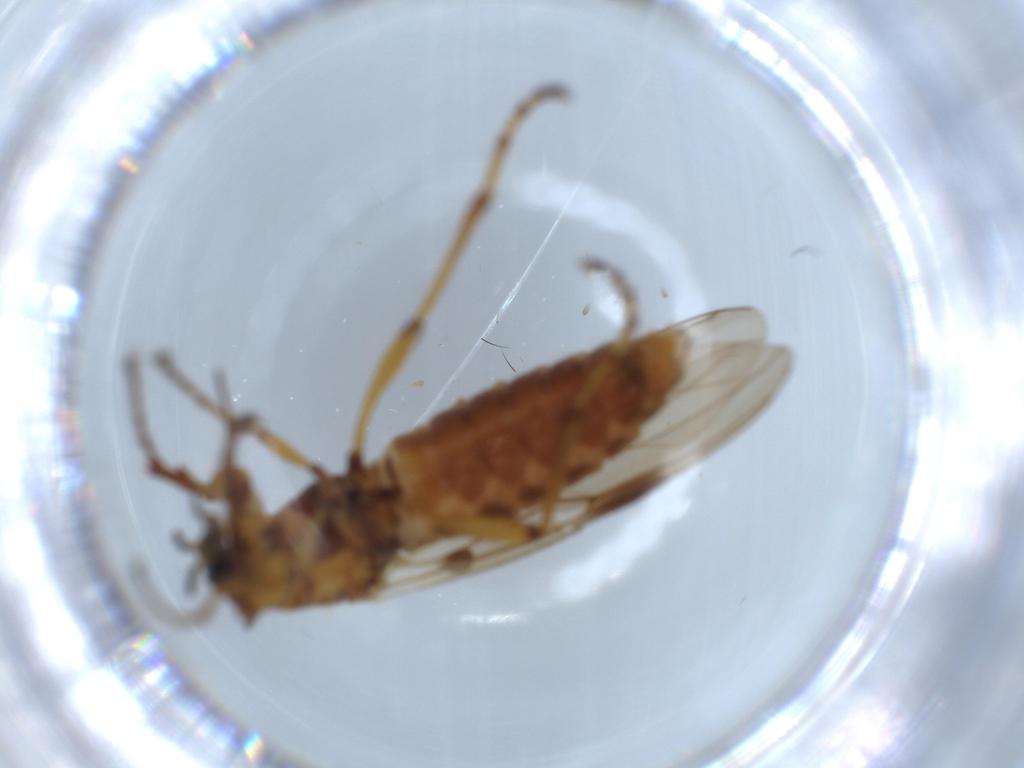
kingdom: Animalia
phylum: Arthropoda
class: Insecta
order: Diptera
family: Bibionidae
